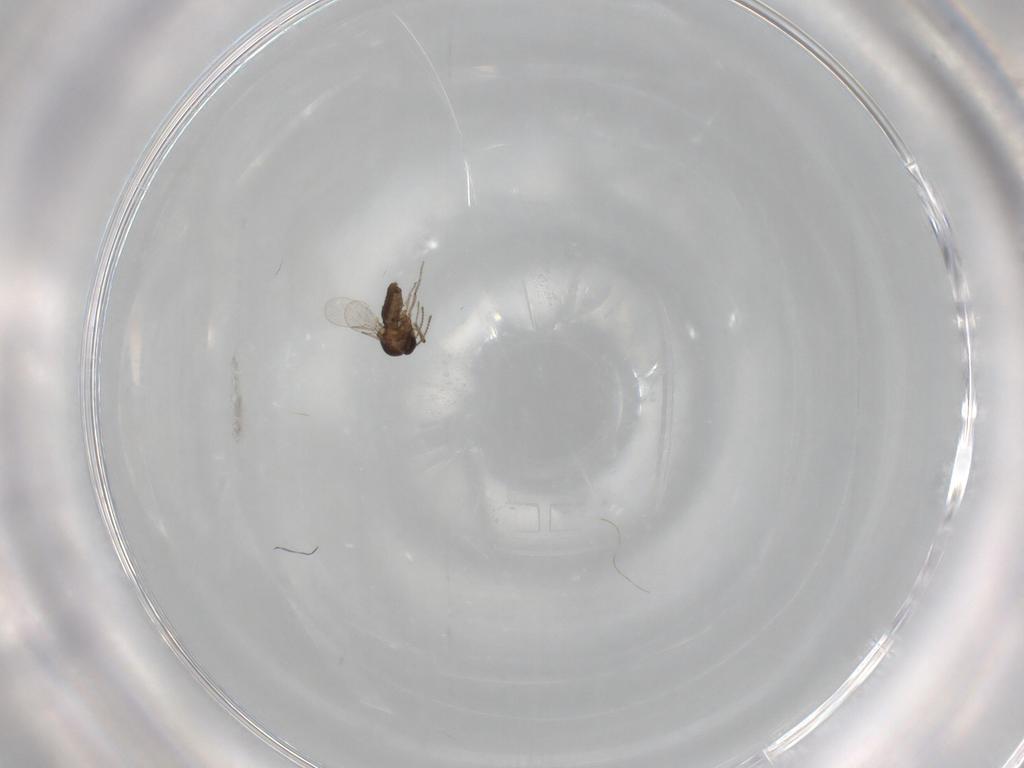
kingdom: Animalia
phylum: Arthropoda
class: Insecta
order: Diptera
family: Ceratopogonidae
